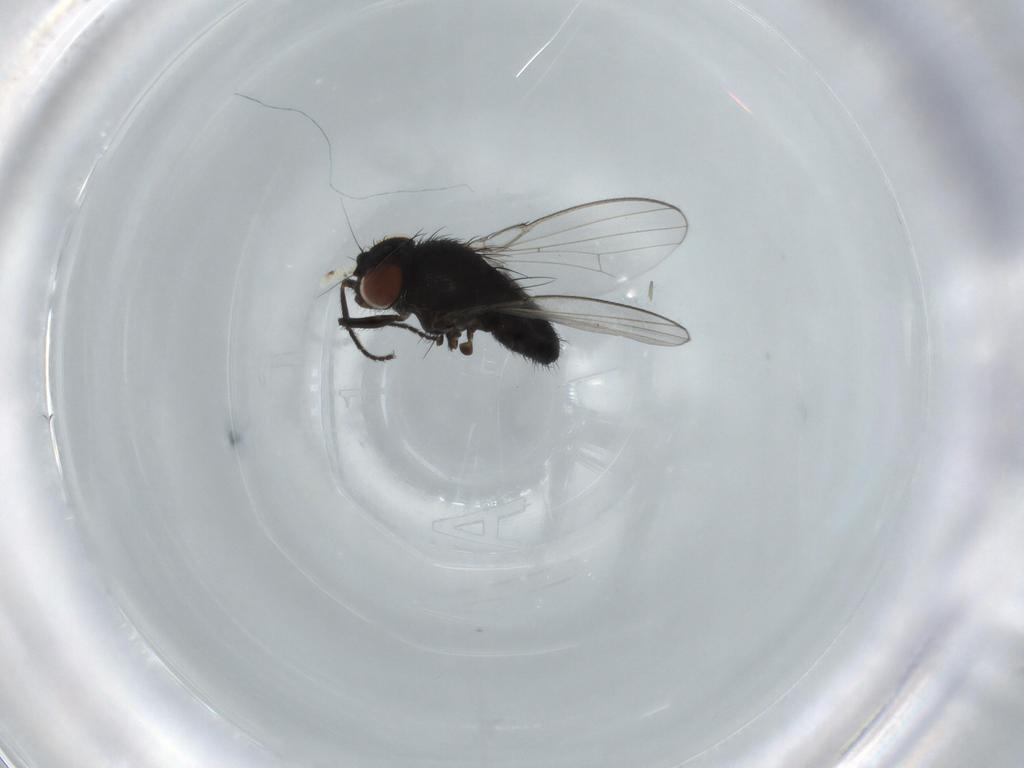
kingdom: Animalia
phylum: Arthropoda
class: Insecta
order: Diptera
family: Milichiidae
